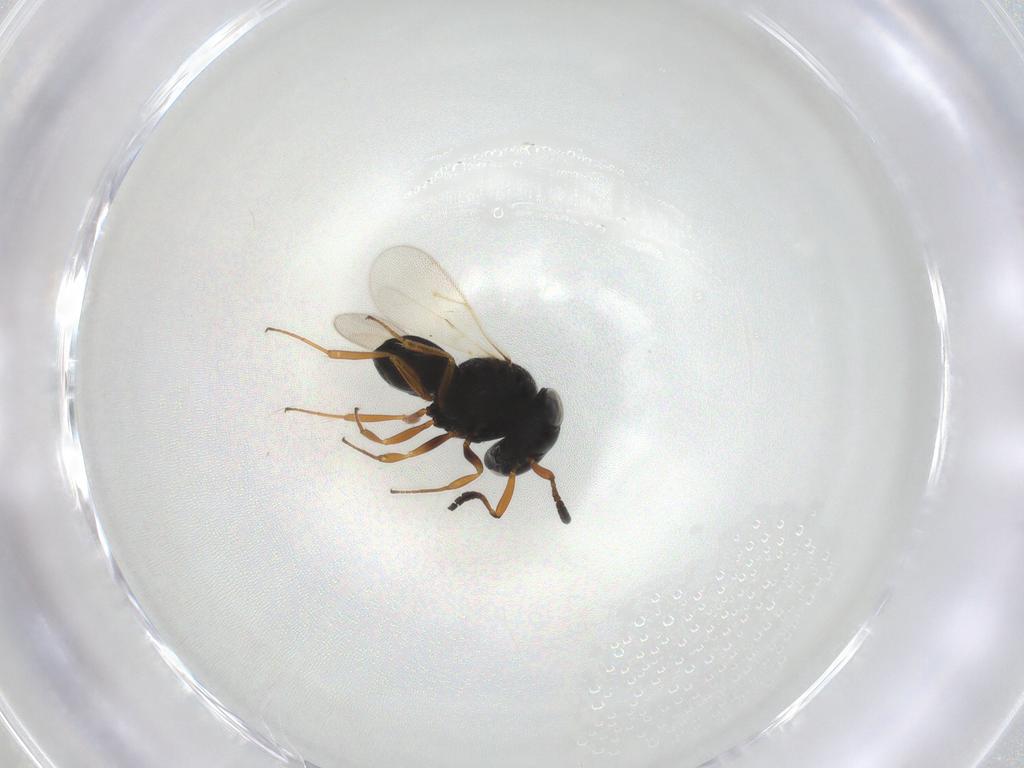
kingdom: Animalia
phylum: Arthropoda
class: Insecta
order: Hymenoptera
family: Scelionidae
